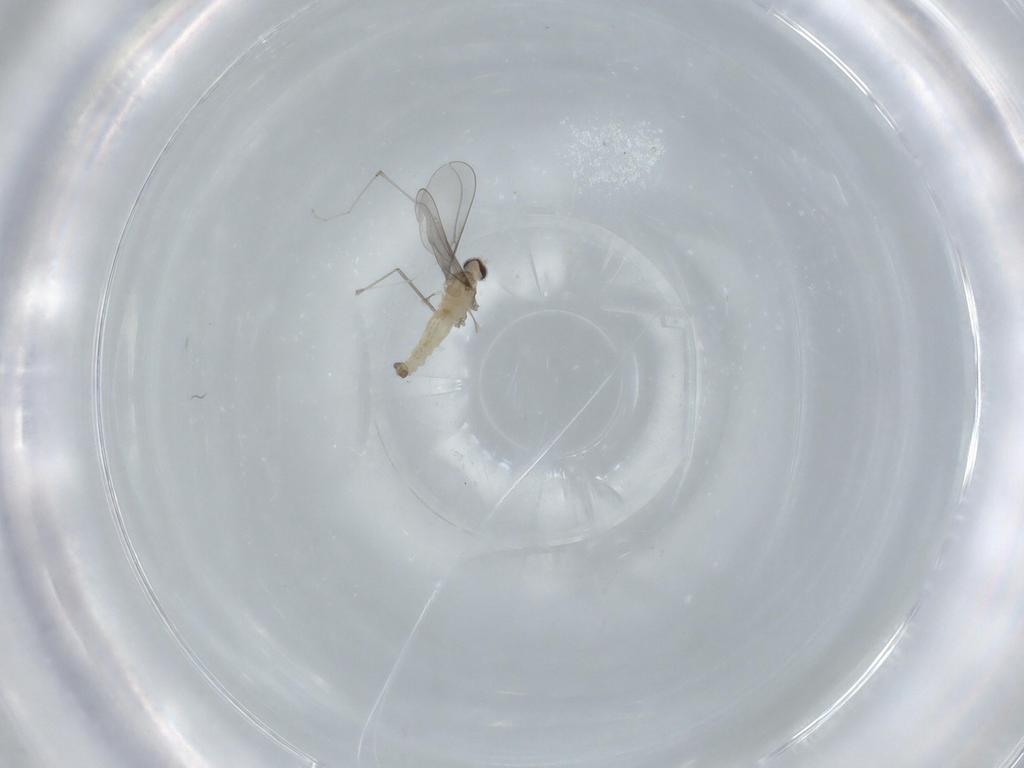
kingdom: Animalia
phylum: Arthropoda
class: Insecta
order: Diptera
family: Cecidomyiidae
